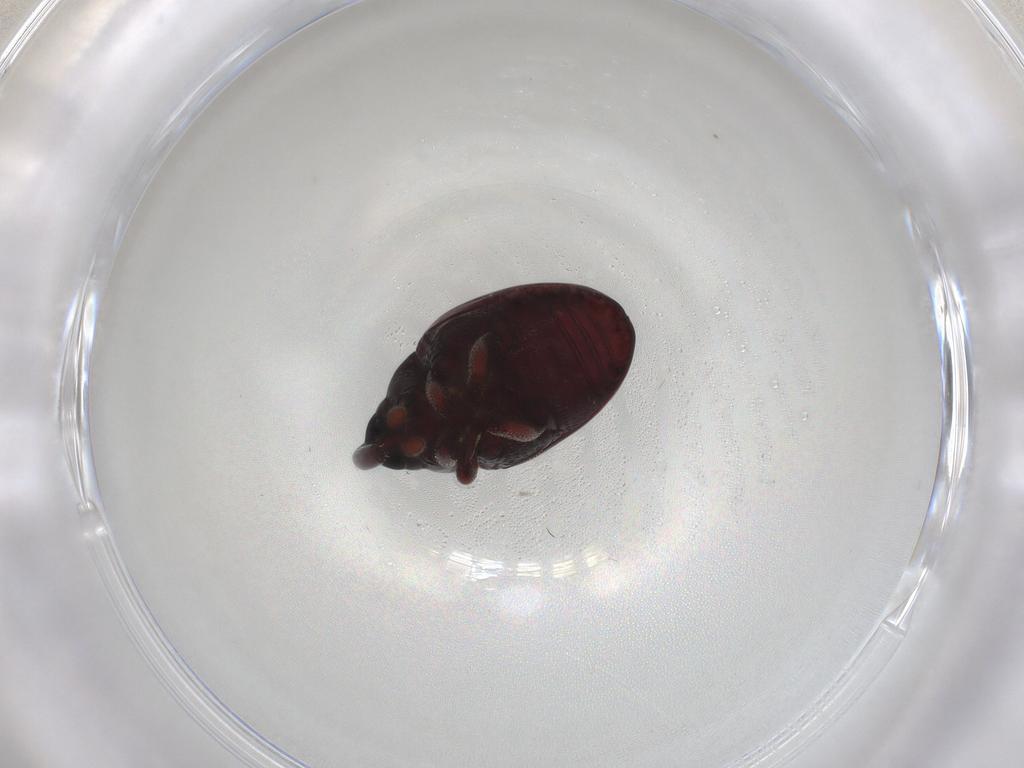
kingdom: Animalia
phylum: Arthropoda
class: Insecta
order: Coleoptera
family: Curculionidae
